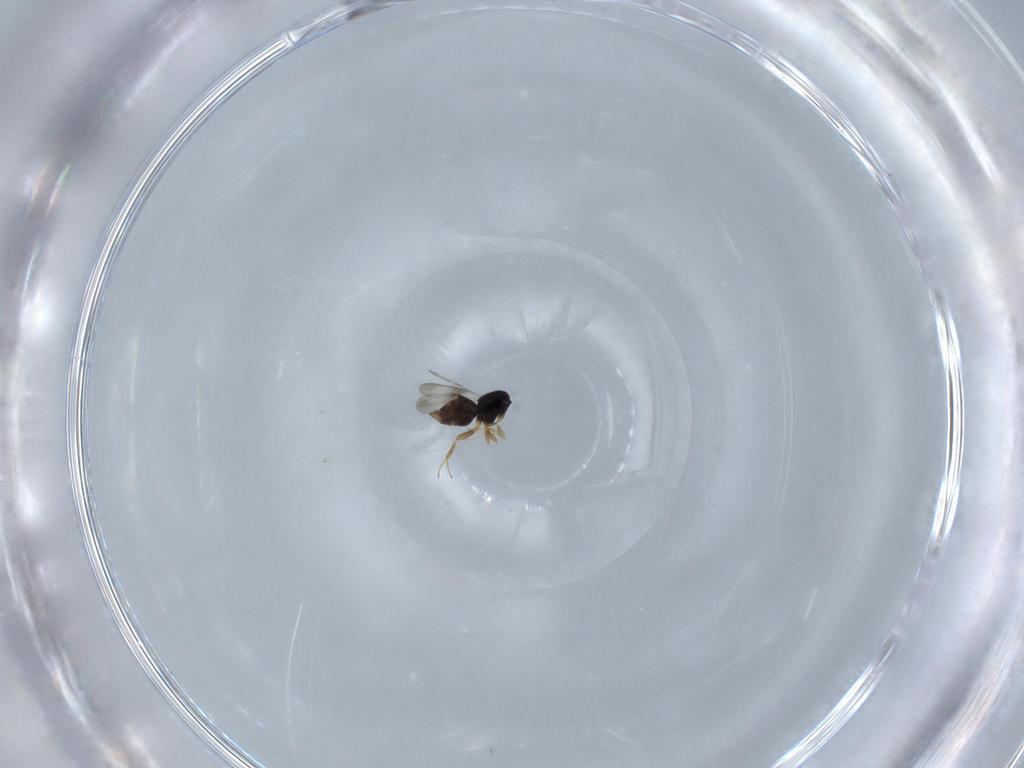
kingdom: Animalia
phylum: Arthropoda
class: Insecta
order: Hymenoptera
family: Ceraphronidae
